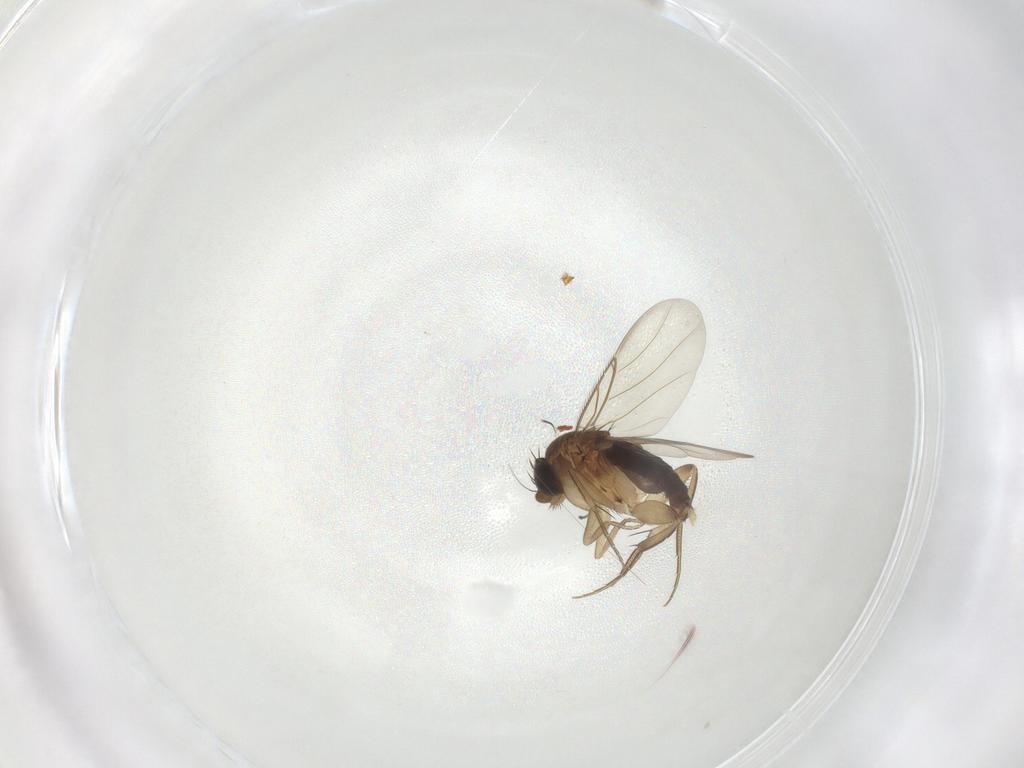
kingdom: Animalia
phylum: Arthropoda
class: Insecta
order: Diptera
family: Phoridae
